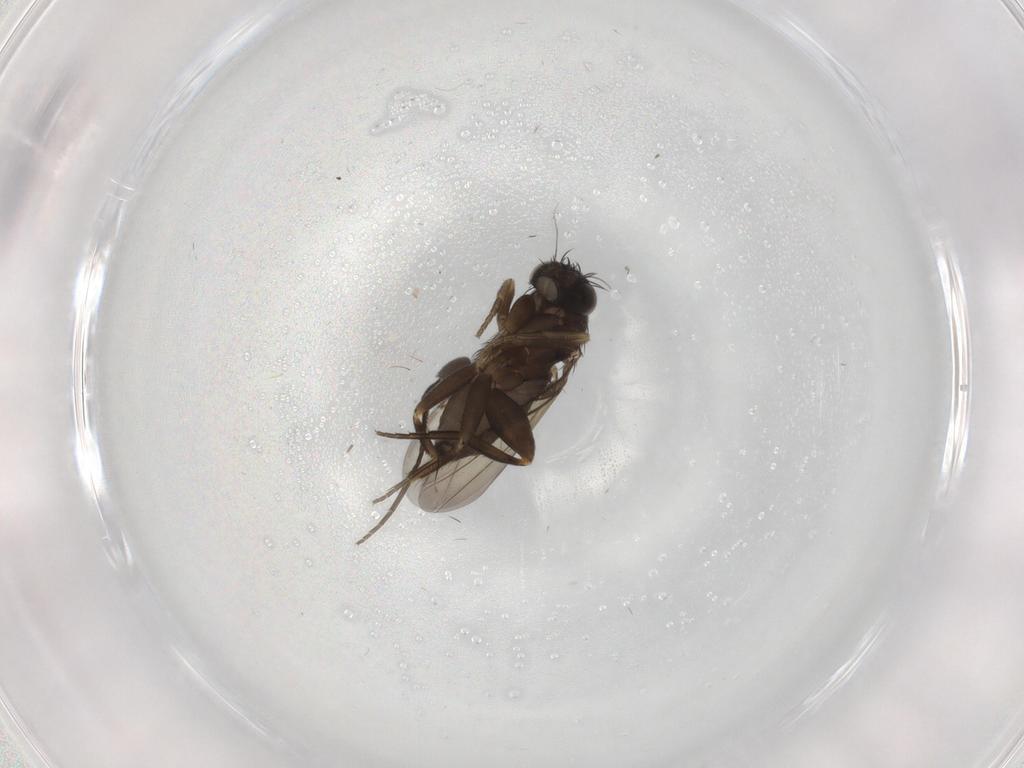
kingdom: Animalia
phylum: Arthropoda
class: Insecta
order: Diptera
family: Phoridae
